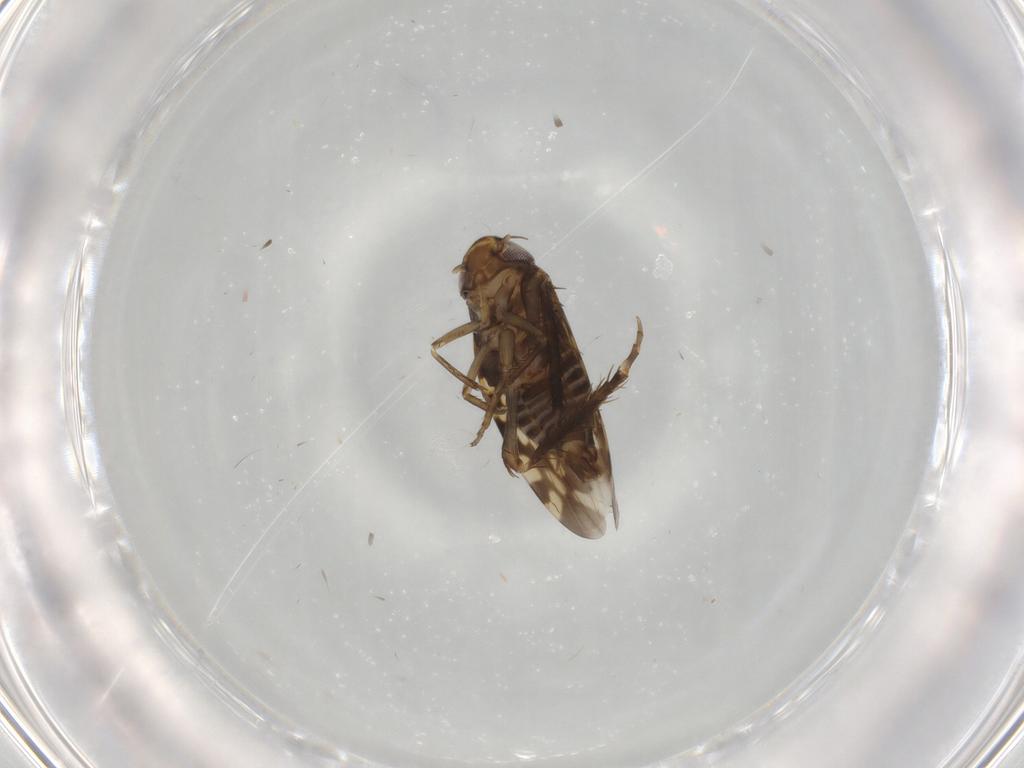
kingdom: Animalia
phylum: Arthropoda
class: Insecta
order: Hemiptera
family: Cicadellidae
